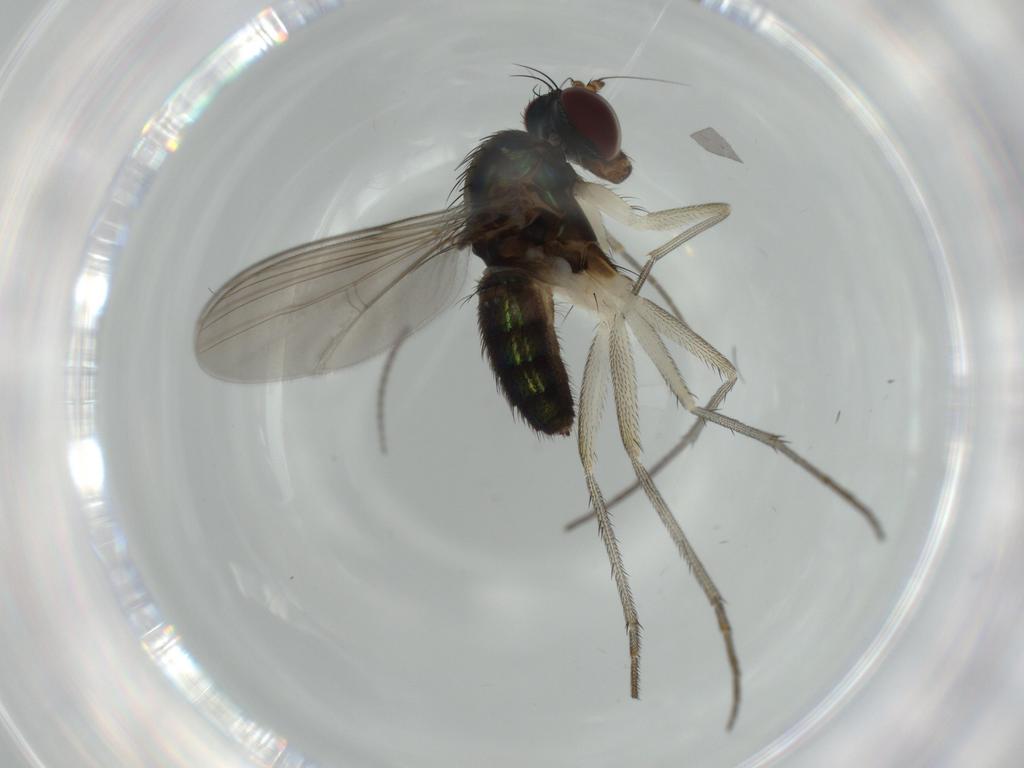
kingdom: Animalia
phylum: Arthropoda
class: Insecta
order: Diptera
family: Dolichopodidae
